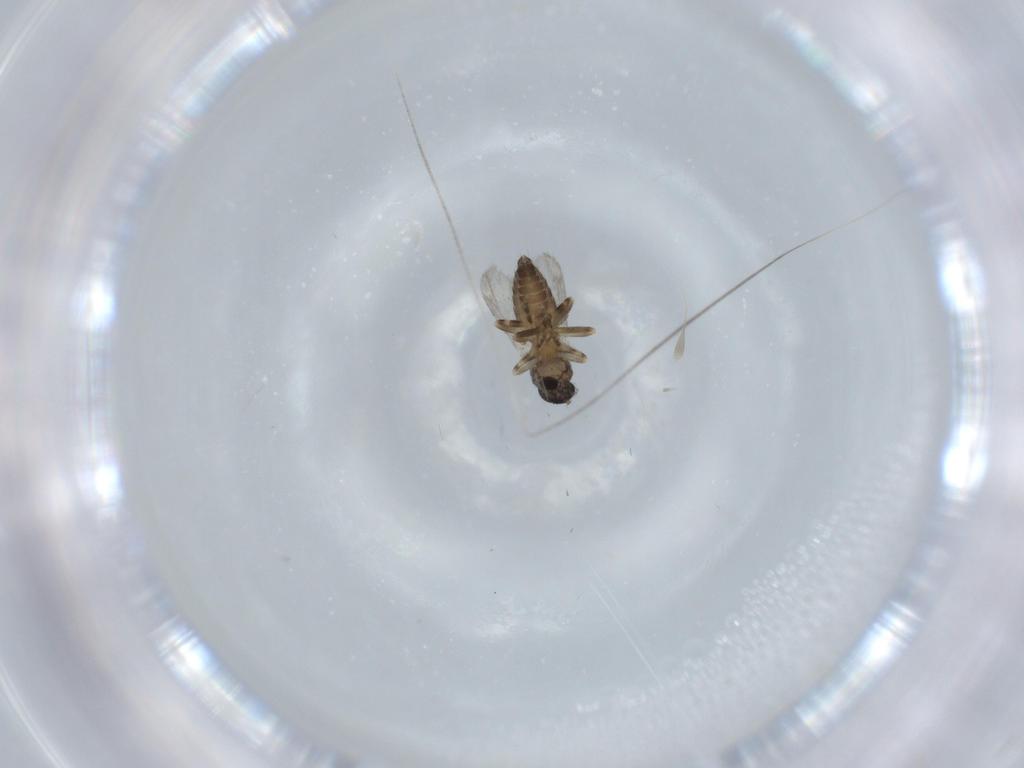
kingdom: Animalia
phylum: Arthropoda
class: Insecta
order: Diptera
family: Ceratopogonidae
